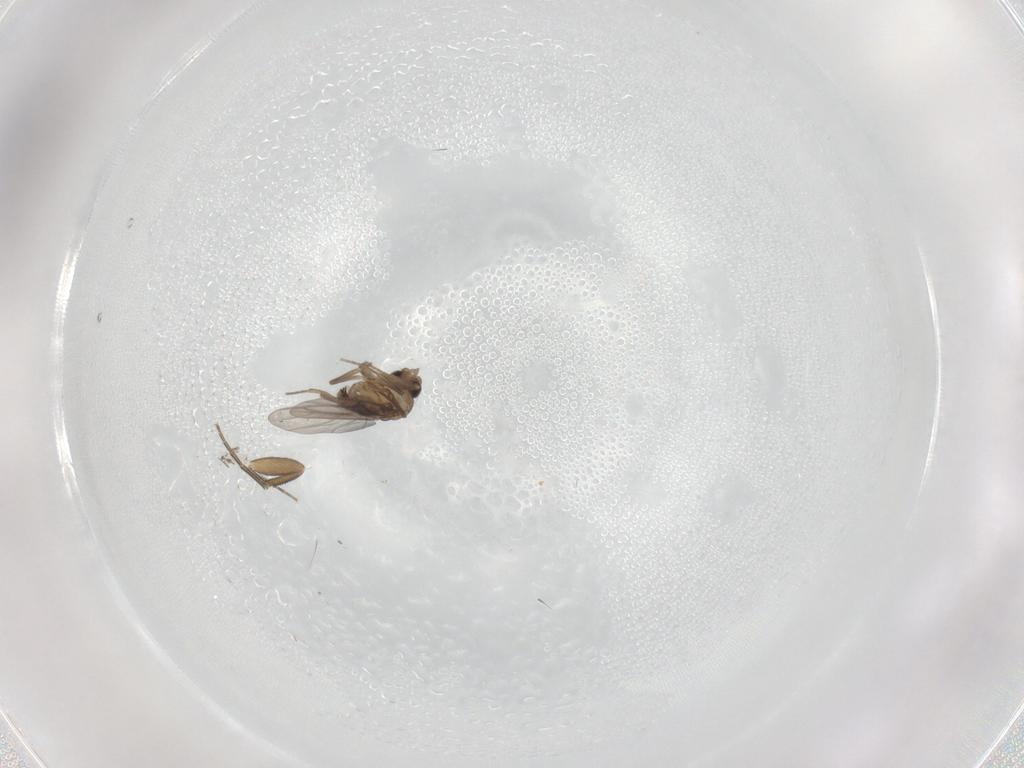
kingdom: Animalia
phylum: Arthropoda
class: Insecta
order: Diptera
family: Phoridae
